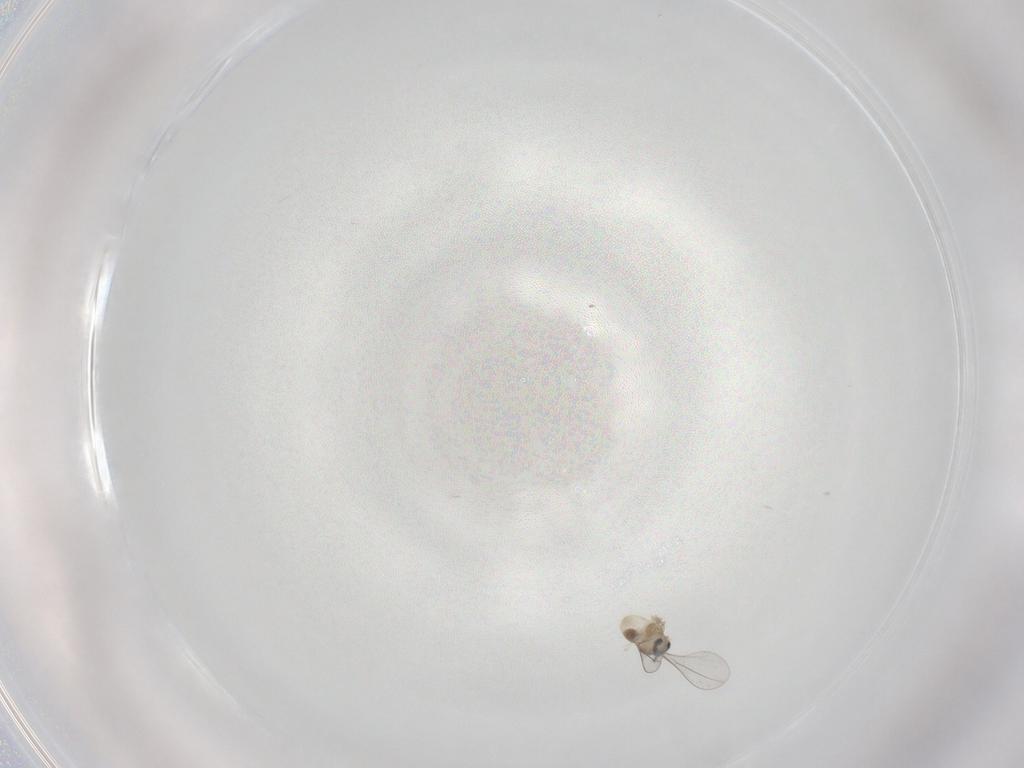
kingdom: Animalia
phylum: Arthropoda
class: Insecta
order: Diptera
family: Cecidomyiidae
